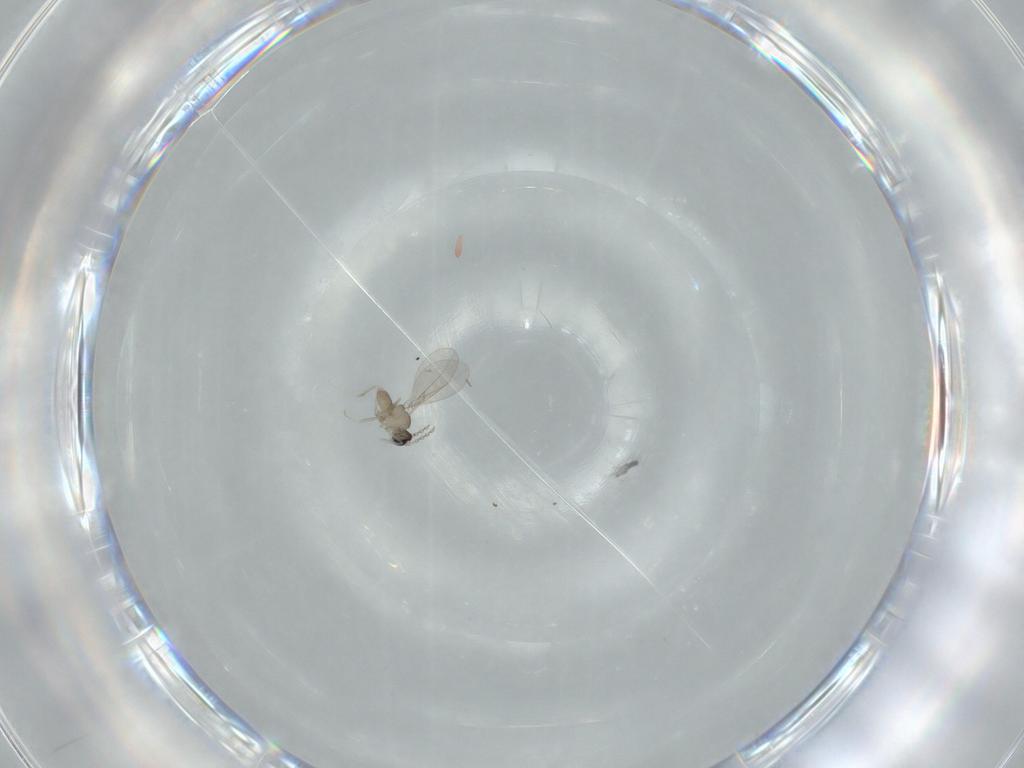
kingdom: Animalia
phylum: Arthropoda
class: Insecta
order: Diptera
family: Cecidomyiidae
